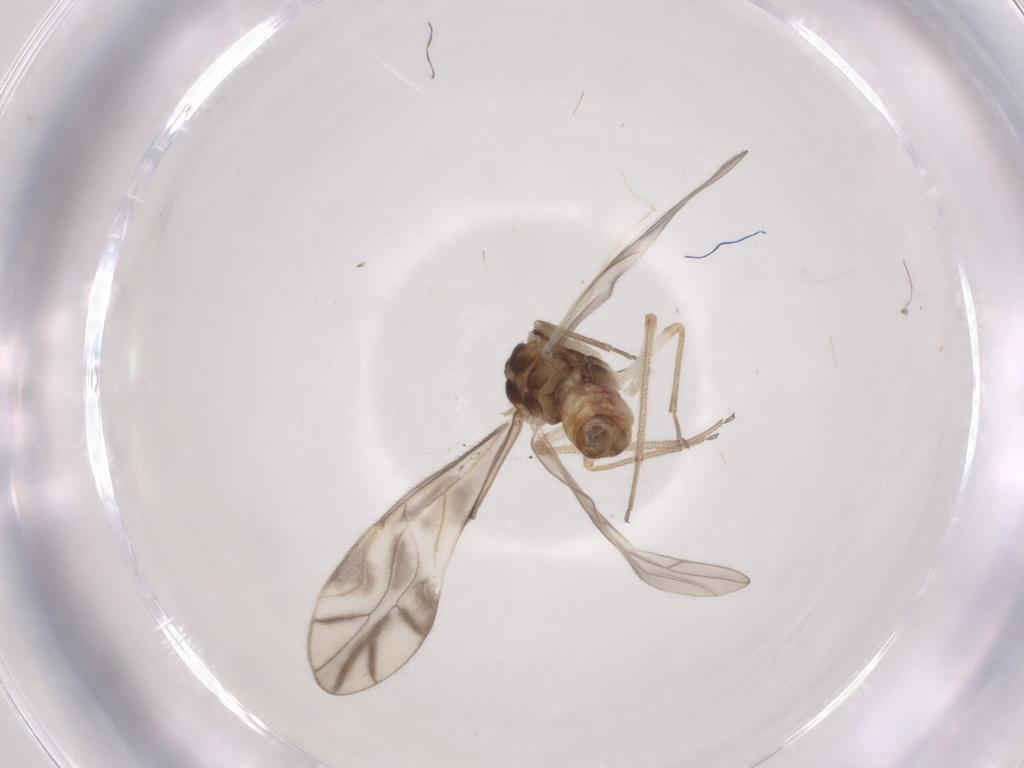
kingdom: Animalia
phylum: Arthropoda
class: Insecta
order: Psocodea
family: Caeciliusidae
